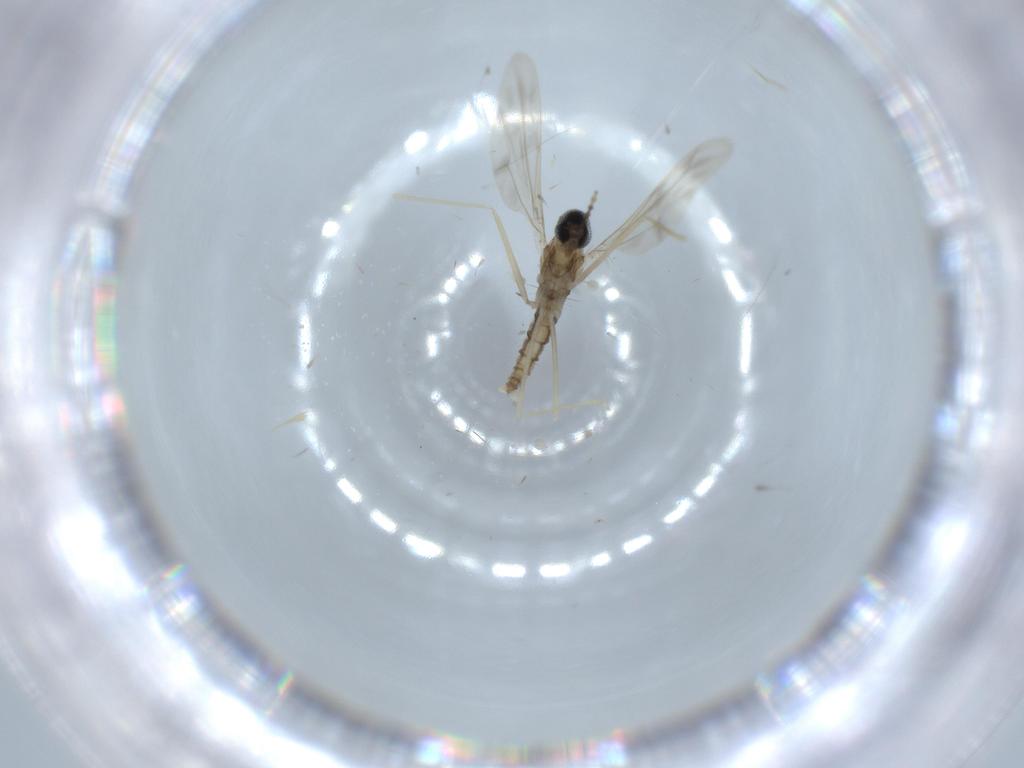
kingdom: Animalia
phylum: Arthropoda
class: Insecta
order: Diptera
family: Cecidomyiidae
